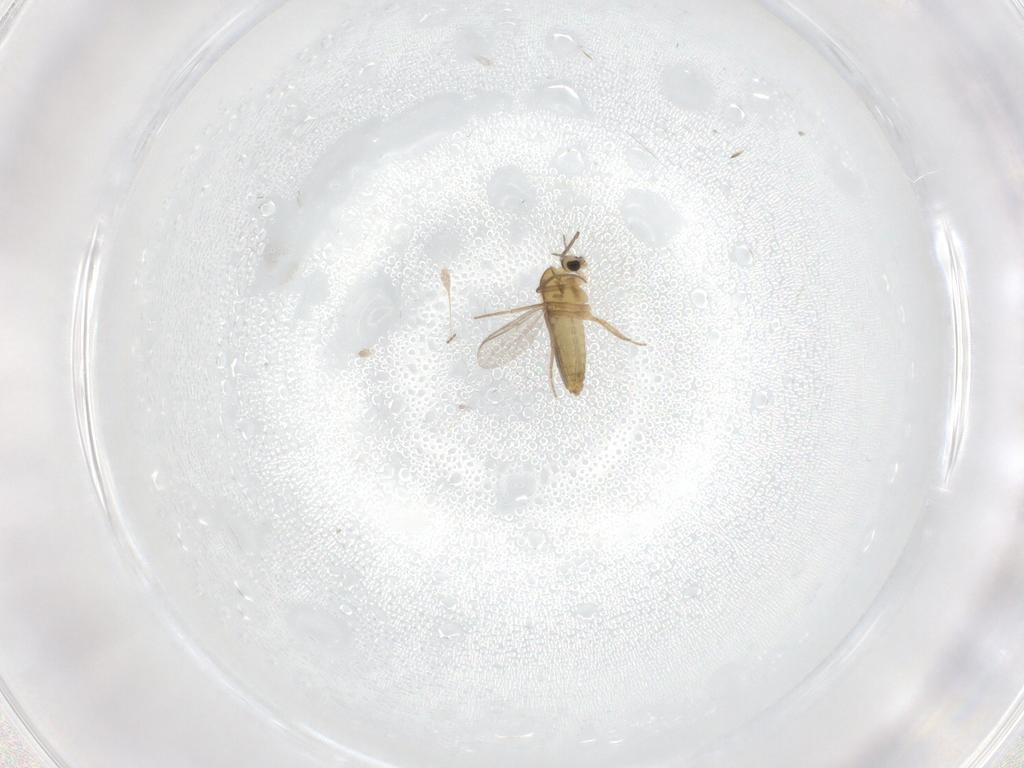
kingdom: Animalia
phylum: Arthropoda
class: Insecta
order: Diptera
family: Chironomidae
